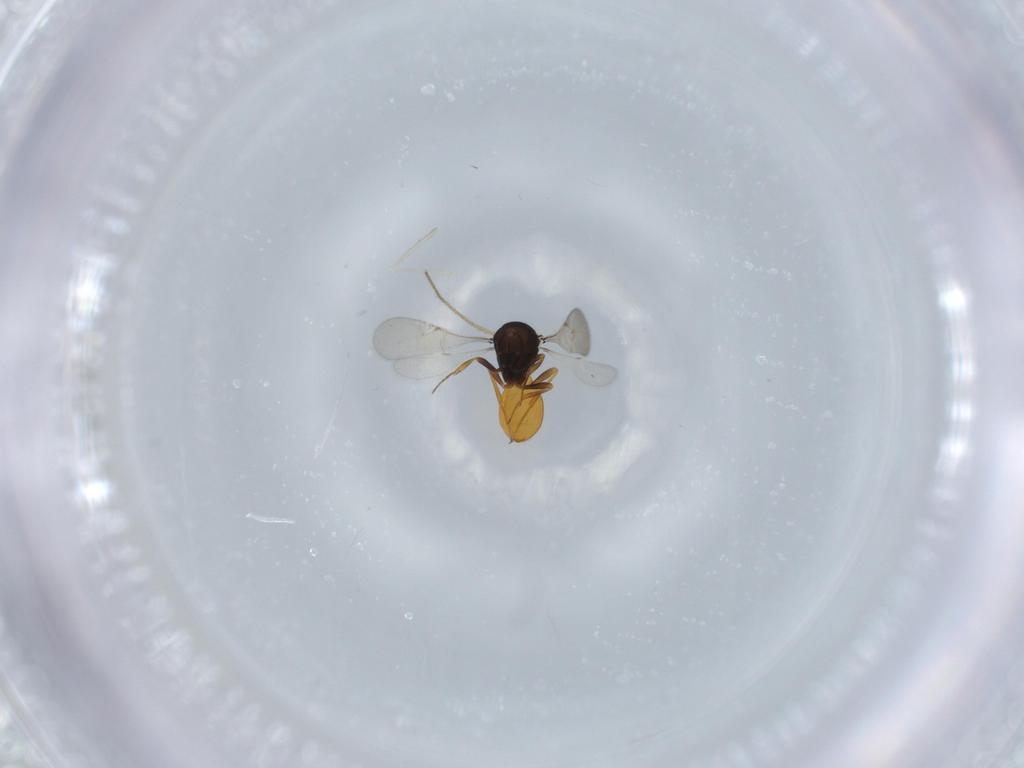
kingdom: Animalia
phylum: Arthropoda
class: Insecta
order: Hymenoptera
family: Scelionidae
